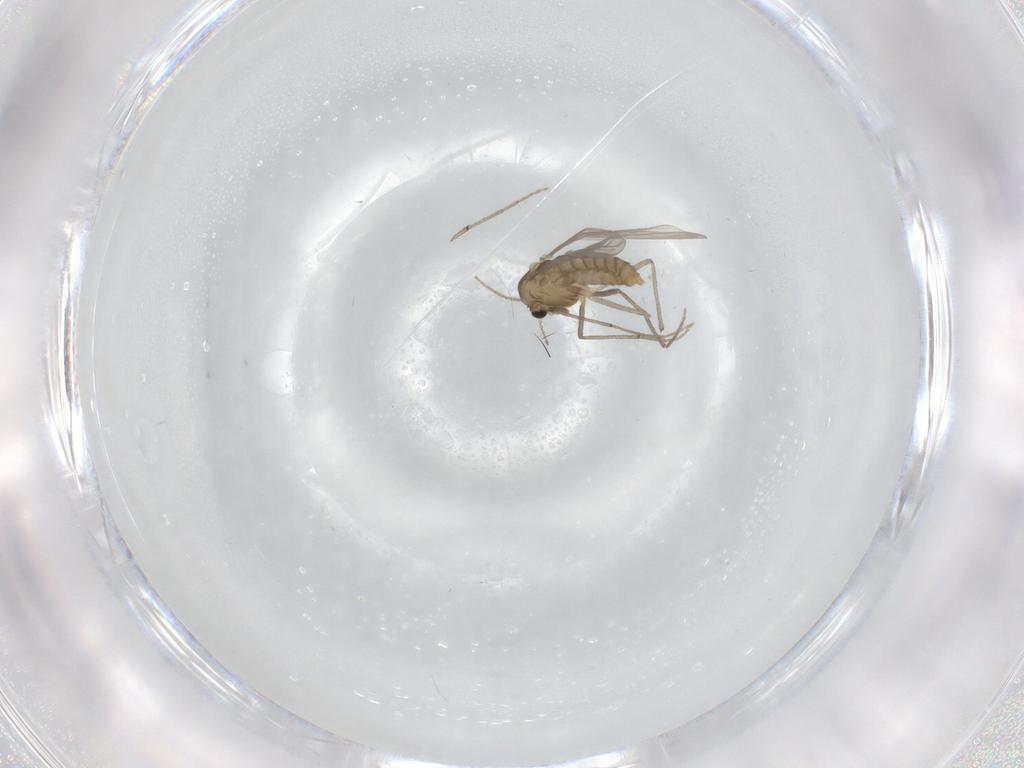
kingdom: Animalia
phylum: Arthropoda
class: Insecta
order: Diptera
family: Chironomidae
